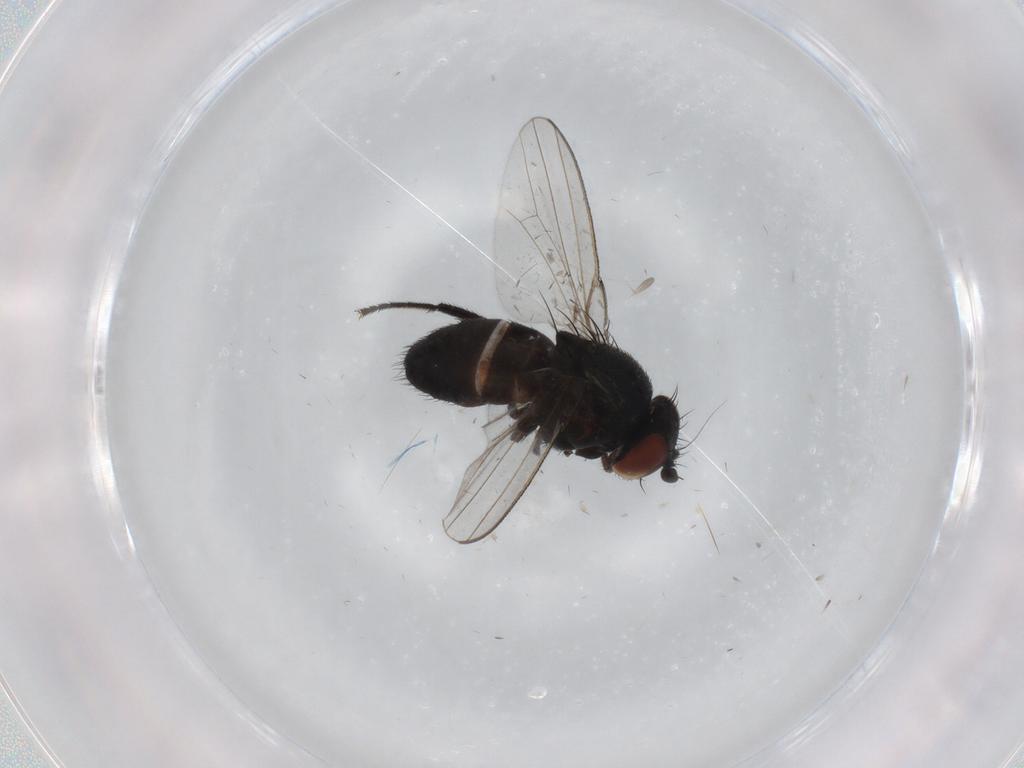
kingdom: Animalia
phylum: Arthropoda
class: Insecta
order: Diptera
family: Milichiidae
